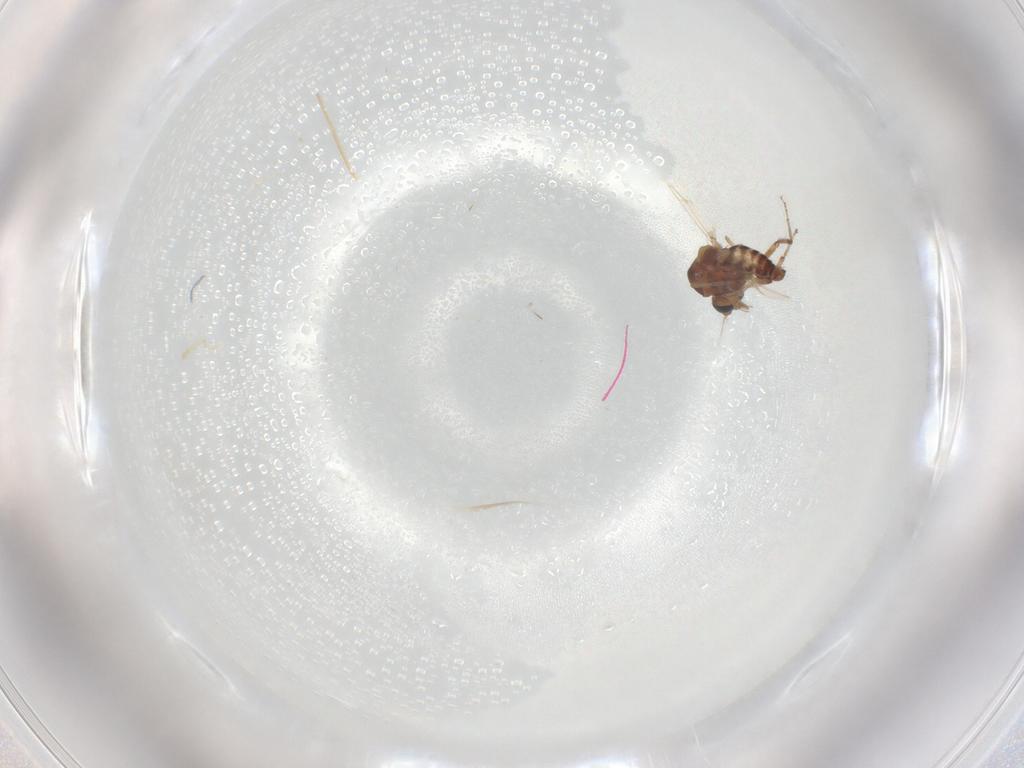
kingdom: Animalia
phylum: Arthropoda
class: Insecta
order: Diptera
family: Ceratopogonidae
